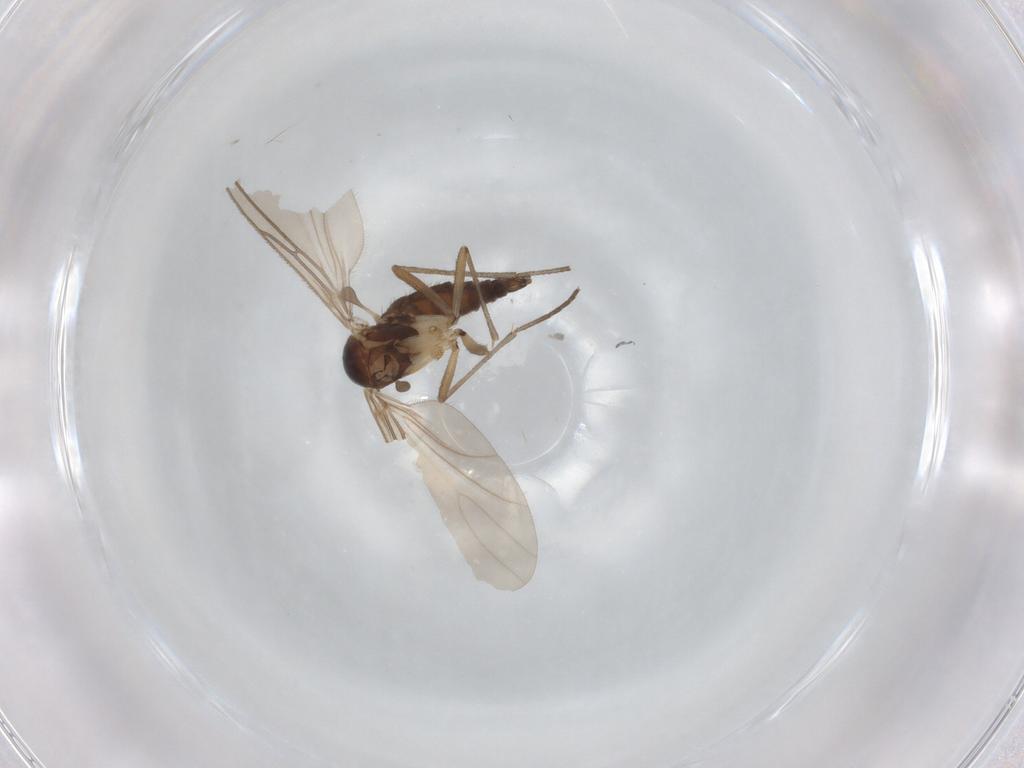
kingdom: Animalia
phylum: Arthropoda
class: Insecta
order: Diptera
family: Sciaridae
